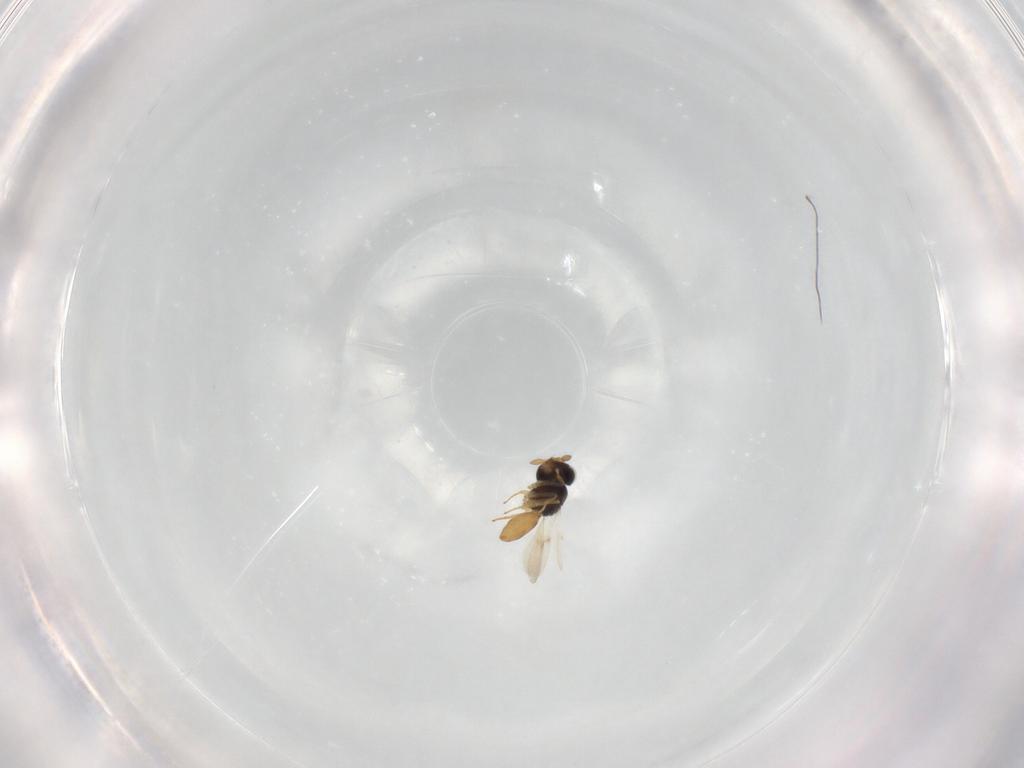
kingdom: Animalia
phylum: Arthropoda
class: Insecta
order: Hymenoptera
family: Scelionidae
